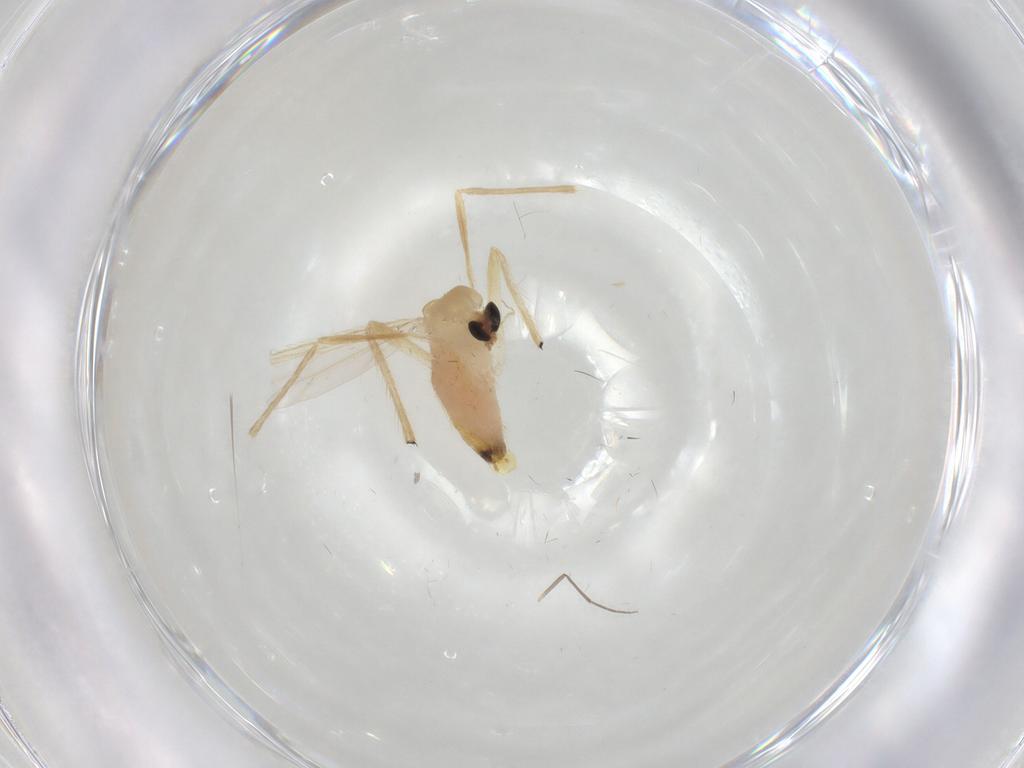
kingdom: Animalia
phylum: Arthropoda
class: Insecta
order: Diptera
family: Chironomidae
